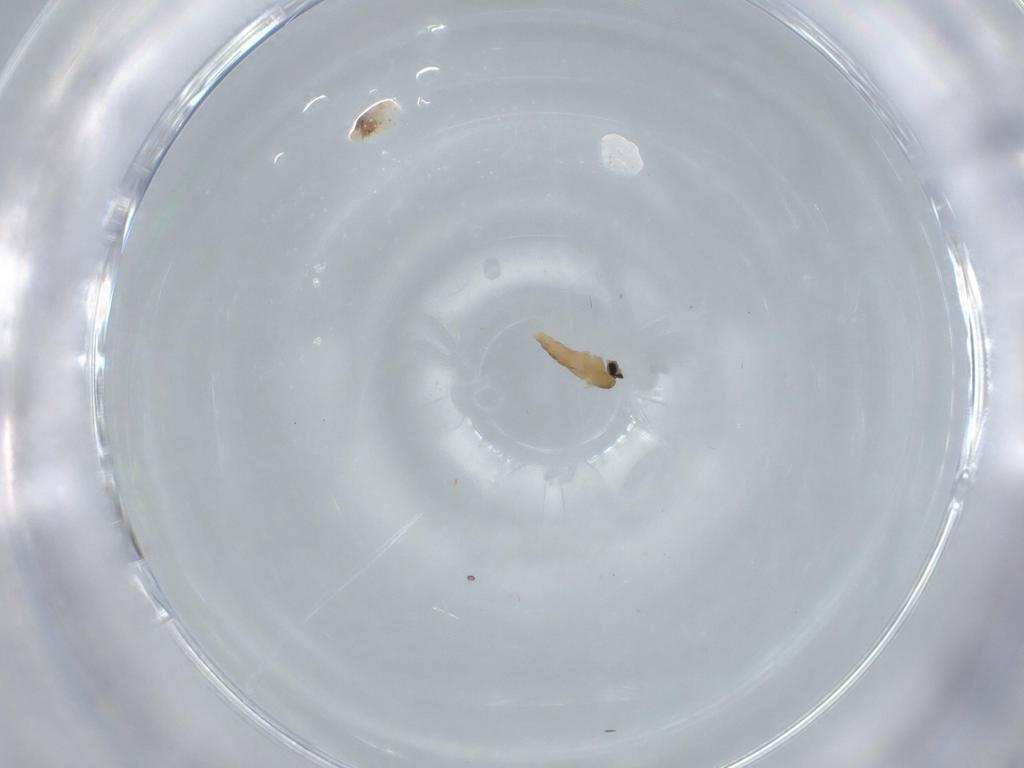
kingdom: Animalia
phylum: Arthropoda
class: Insecta
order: Diptera
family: Cecidomyiidae
